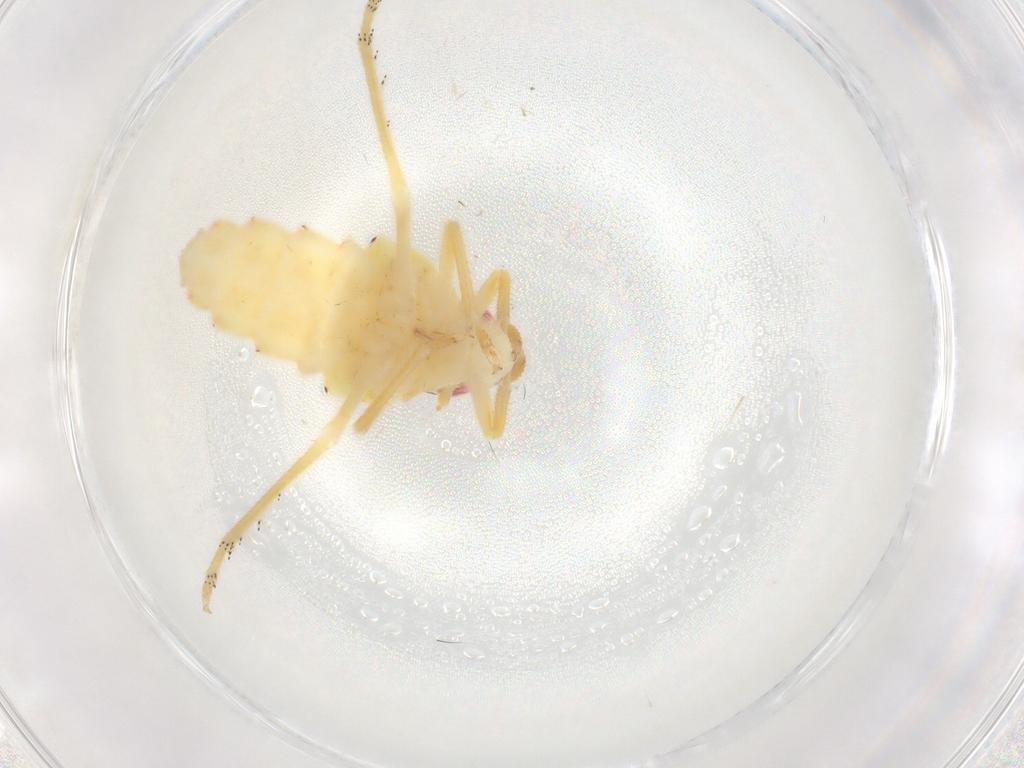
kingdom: Animalia
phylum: Arthropoda
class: Insecta
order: Hemiptera
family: Tropiduchidae
